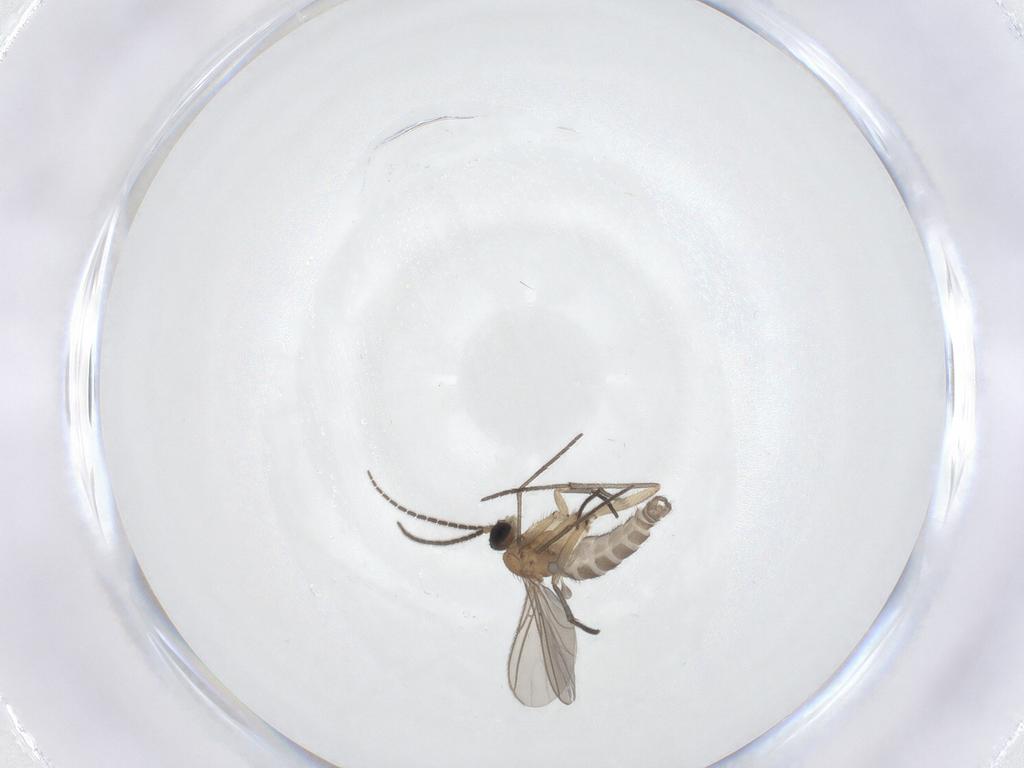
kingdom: Animalia
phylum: Arthropoda
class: Insecta
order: Diptera
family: Sciaridae
